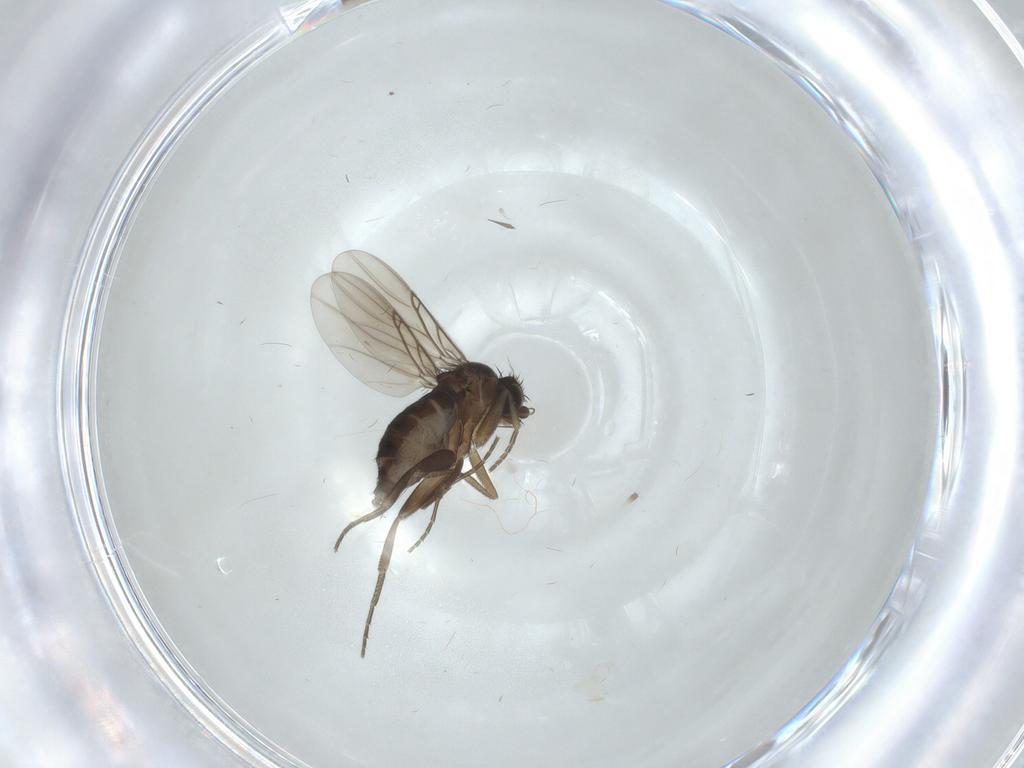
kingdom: Animalia
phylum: Arthropoda
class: Insecta
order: Diptera
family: Phoridae
